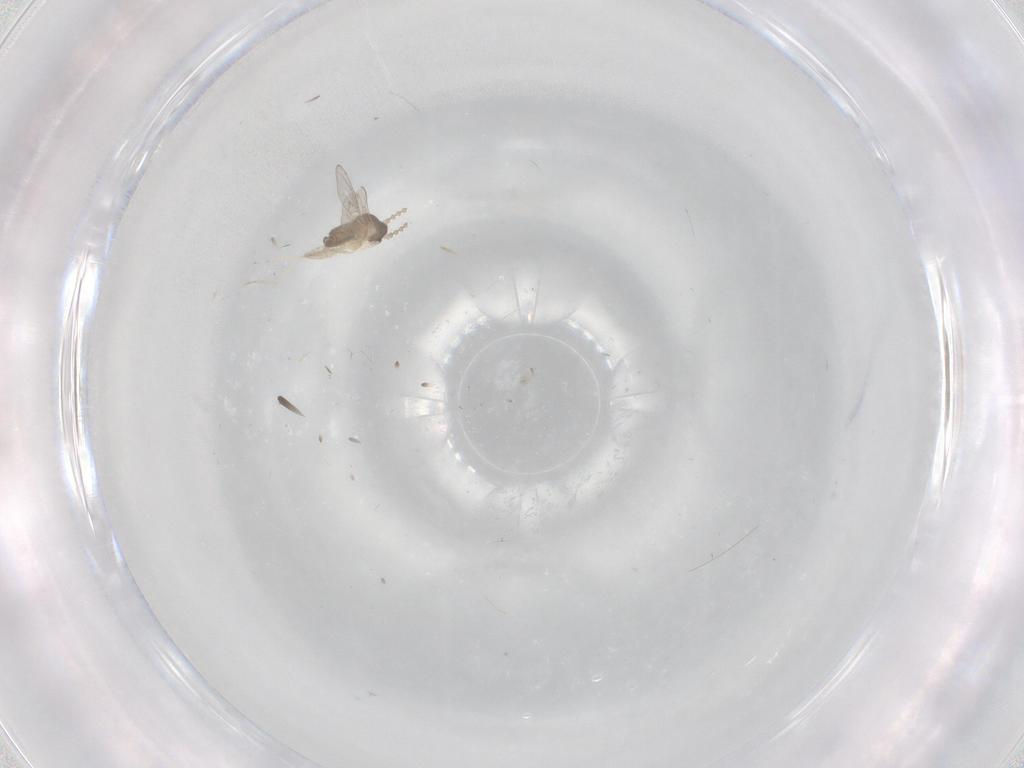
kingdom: Animalia
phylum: Arthropoda
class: Insecta
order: Diptera
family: Cecidomyiidae
